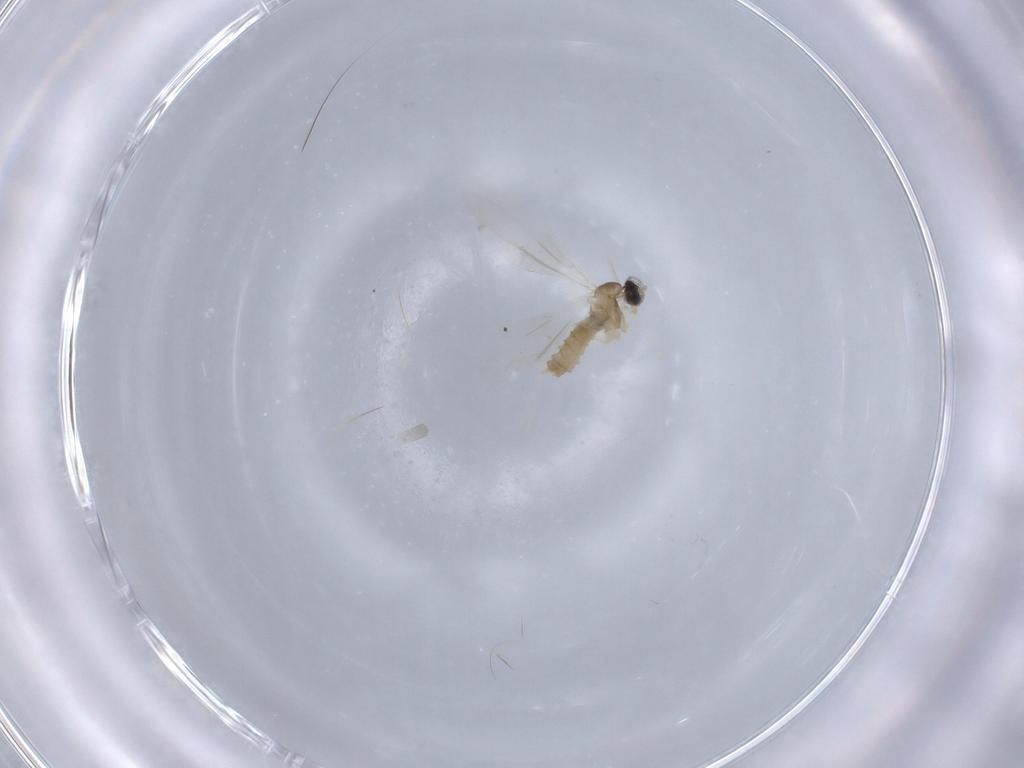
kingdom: Animalia
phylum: Arthropoda
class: Insecta
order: Diptera
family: Cecidomyiidae
